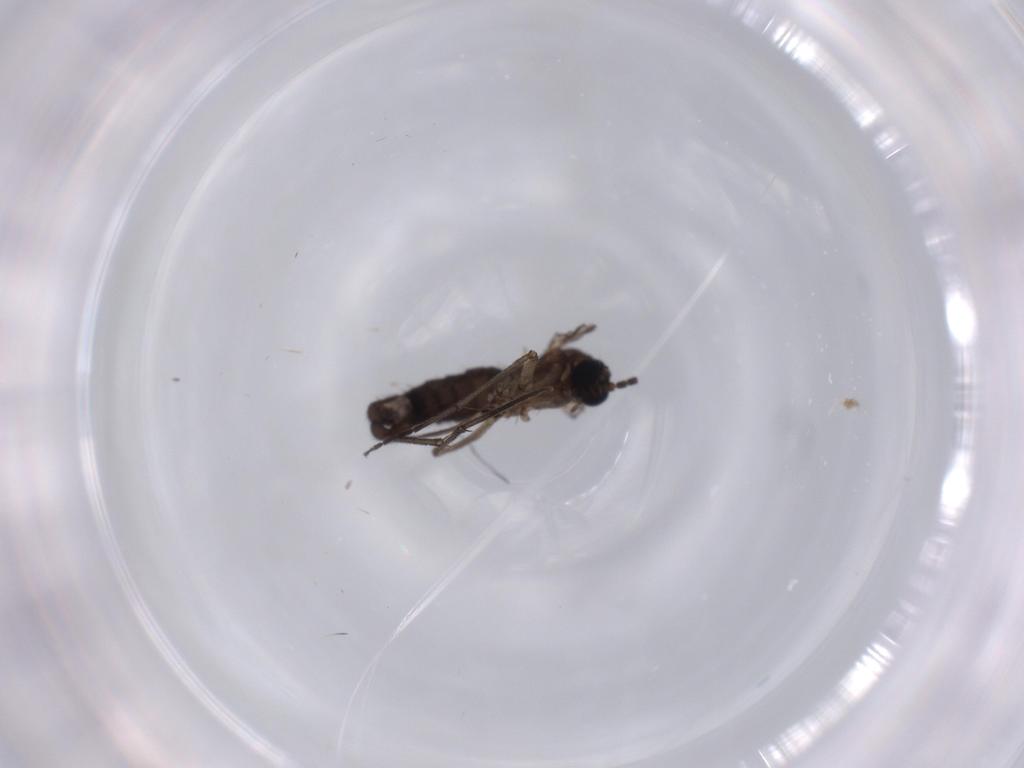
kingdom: Animalia
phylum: Arthropoda
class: Insecta
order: Diptera
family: Sciaridae
